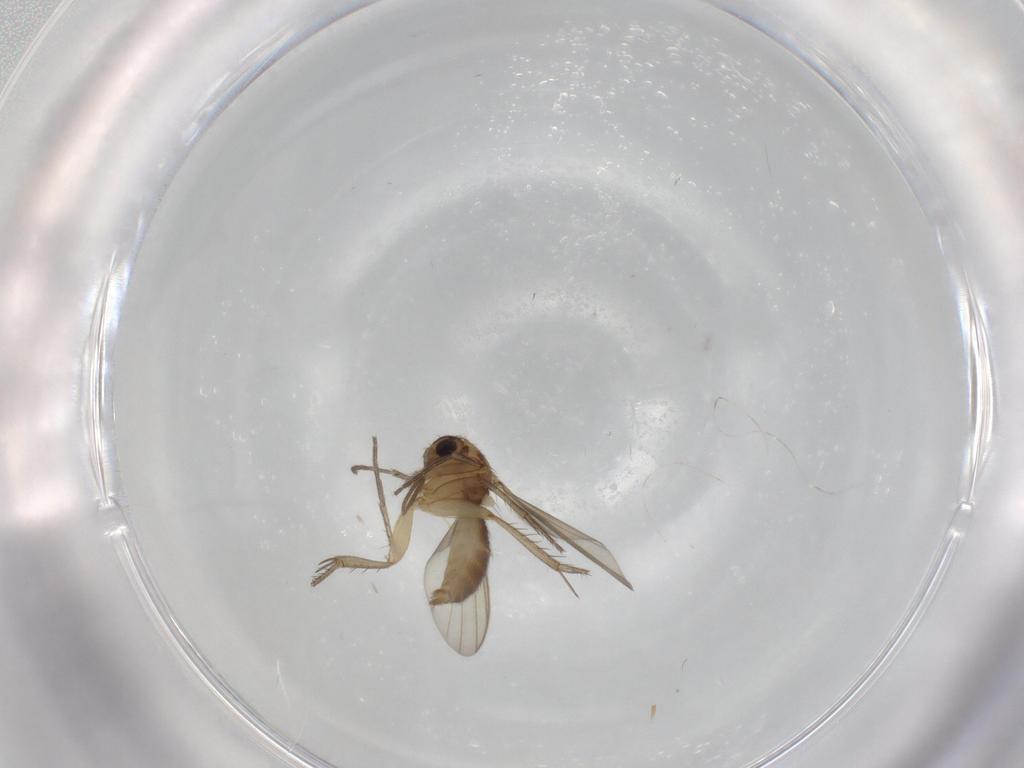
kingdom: Animalia
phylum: Arthropoda
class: Insecta
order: Diptera
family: Mycetophilidae
